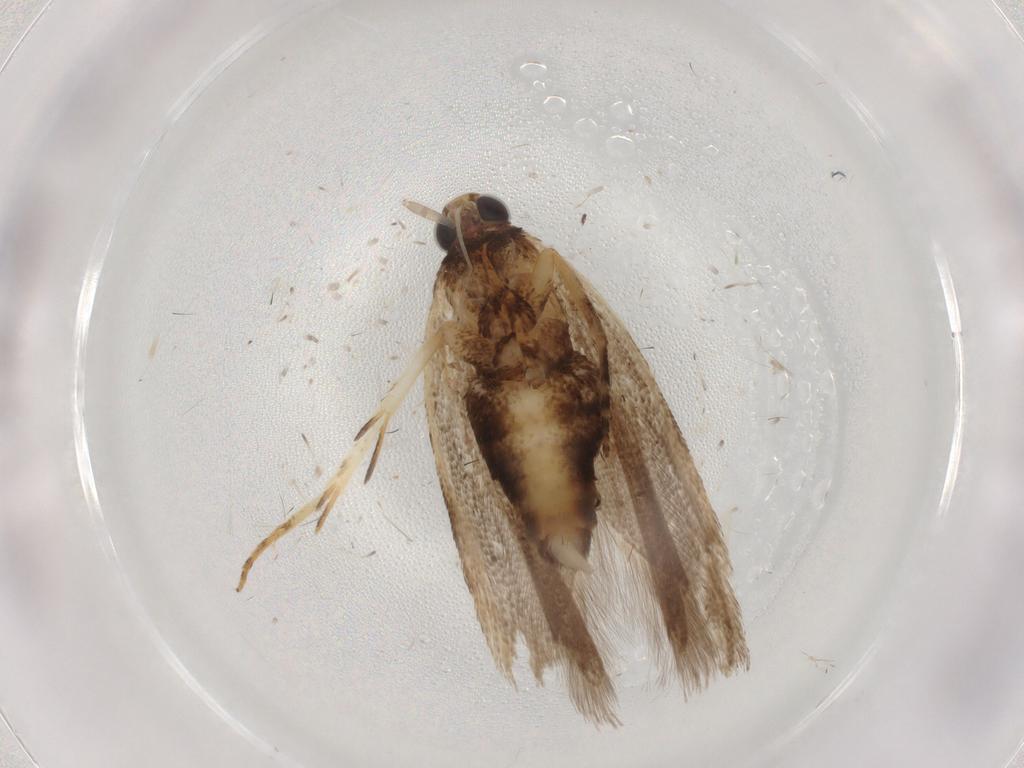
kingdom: Animalia
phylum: Arthropoda
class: Insecta
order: Lepidoptera
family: Gelechiidae
